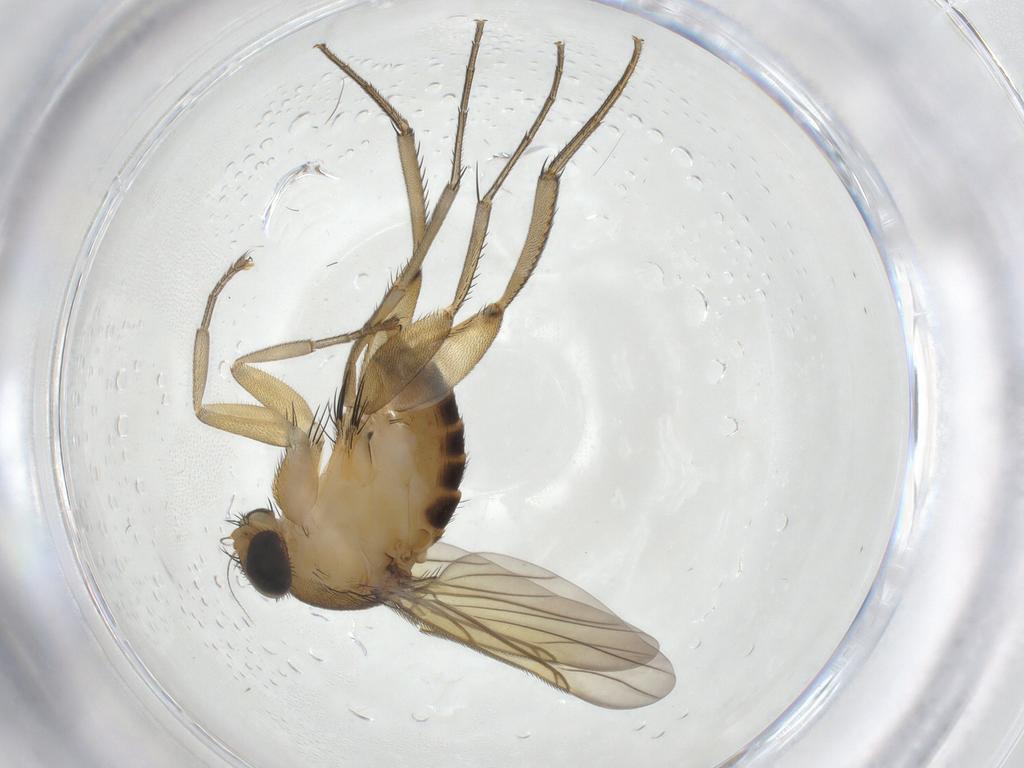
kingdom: Animalia
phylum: Arthropoda
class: Insecta
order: Diptera
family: Phoridae
